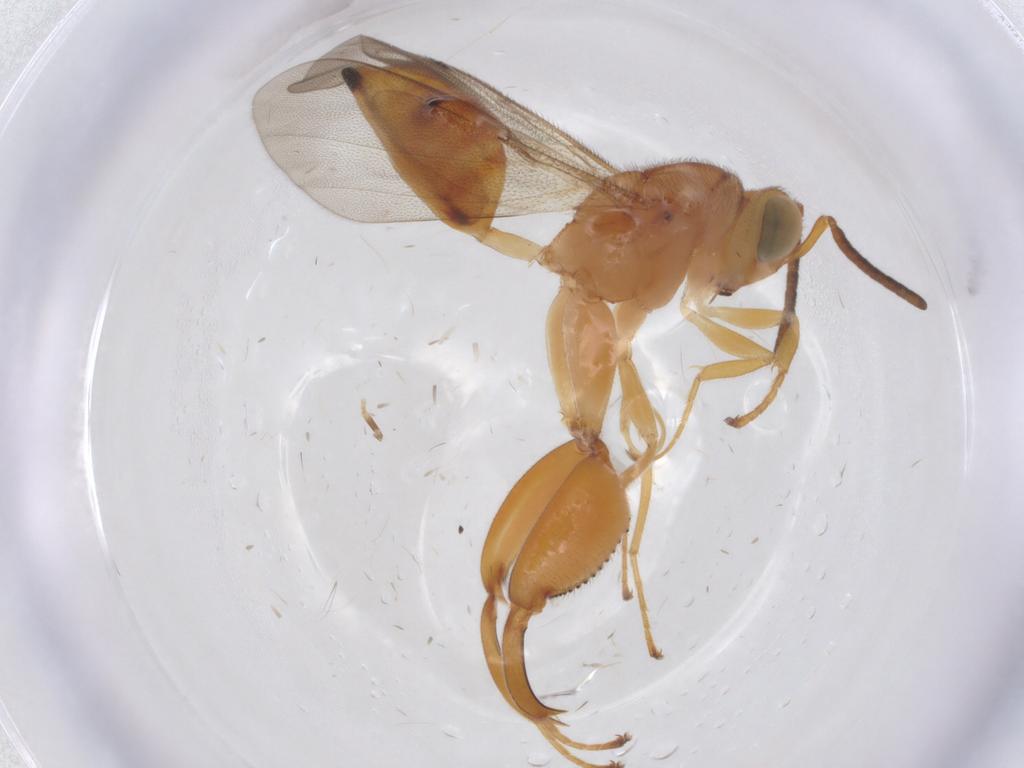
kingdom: Animalia
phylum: Arthropoda
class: Insecta
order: Hymenoptera
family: Chalcididae
